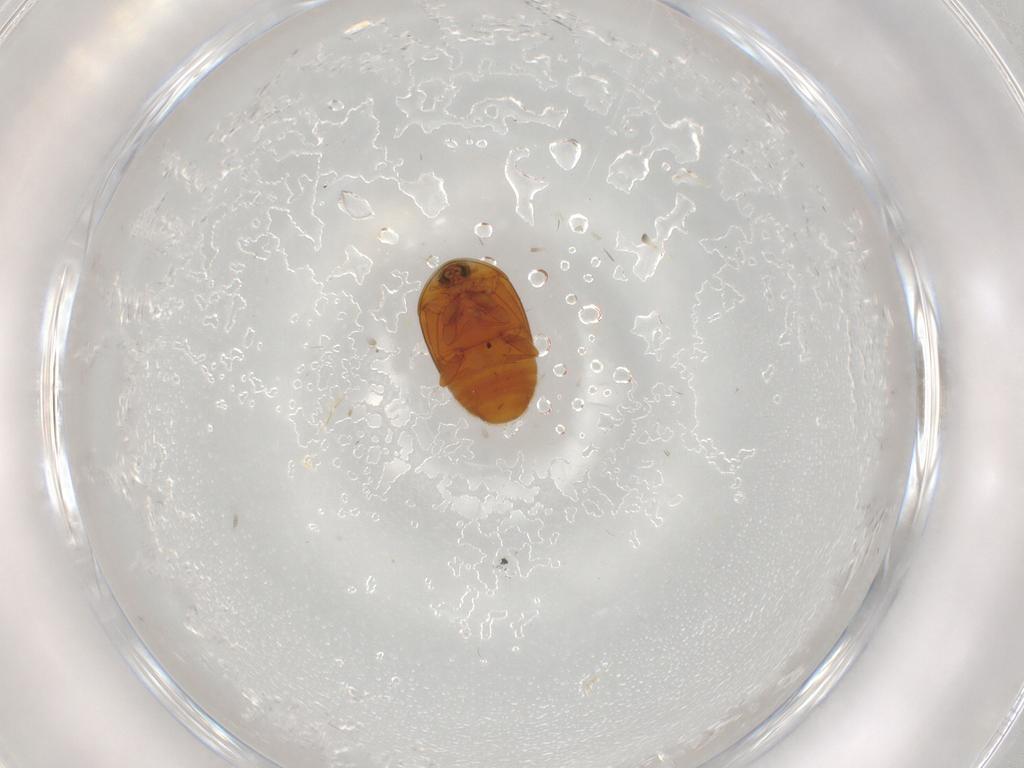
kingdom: Animalia
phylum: Arthropoda
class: Insecta
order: Coleoptera
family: Corylophidae
